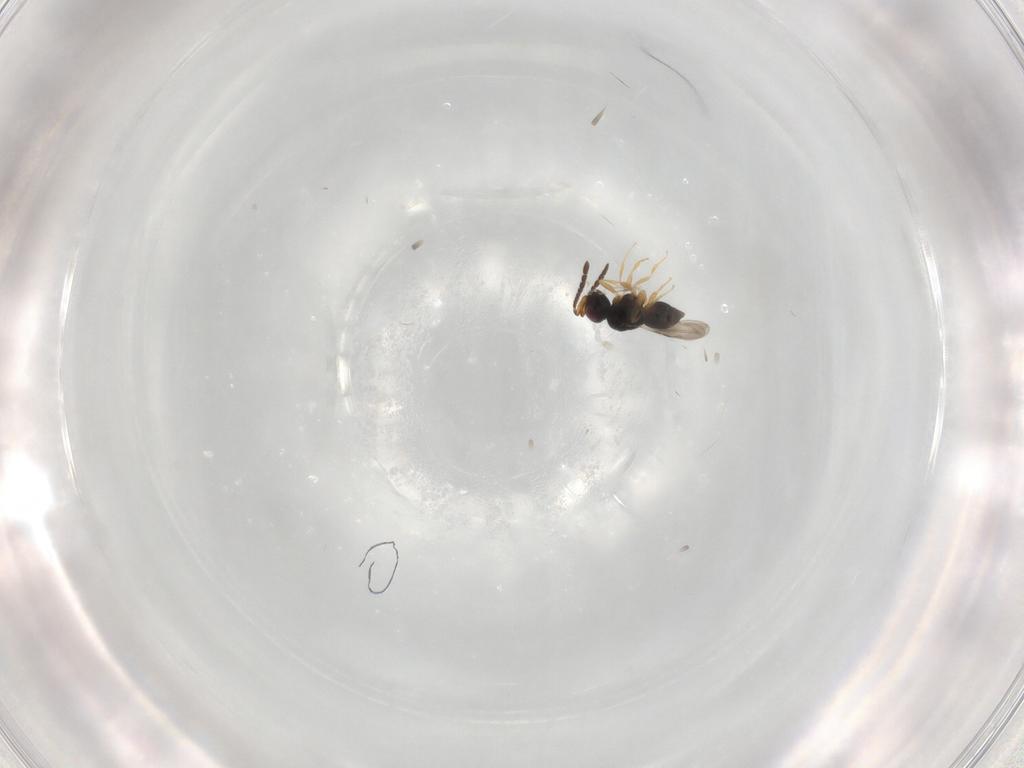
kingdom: Animalia
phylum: Arthropoda
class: Insecta
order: Hymenoptera
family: Ceraphronidae
